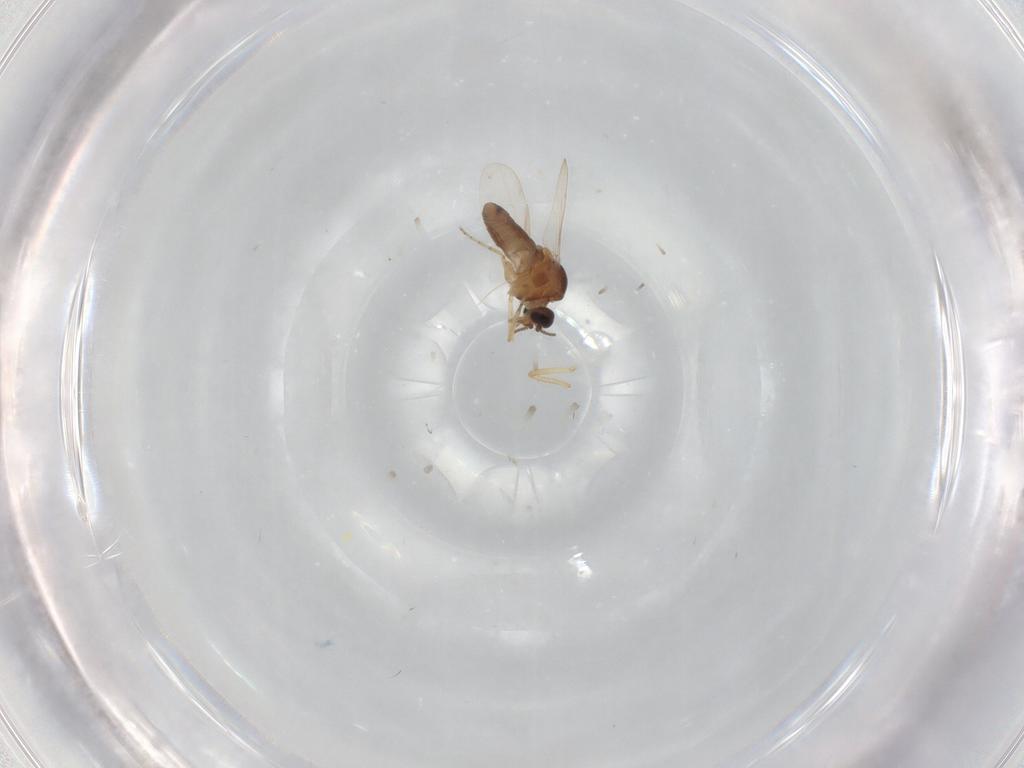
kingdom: Animalia
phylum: Arthropoda
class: Insecta
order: Diptera
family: Ceratopogonidae
